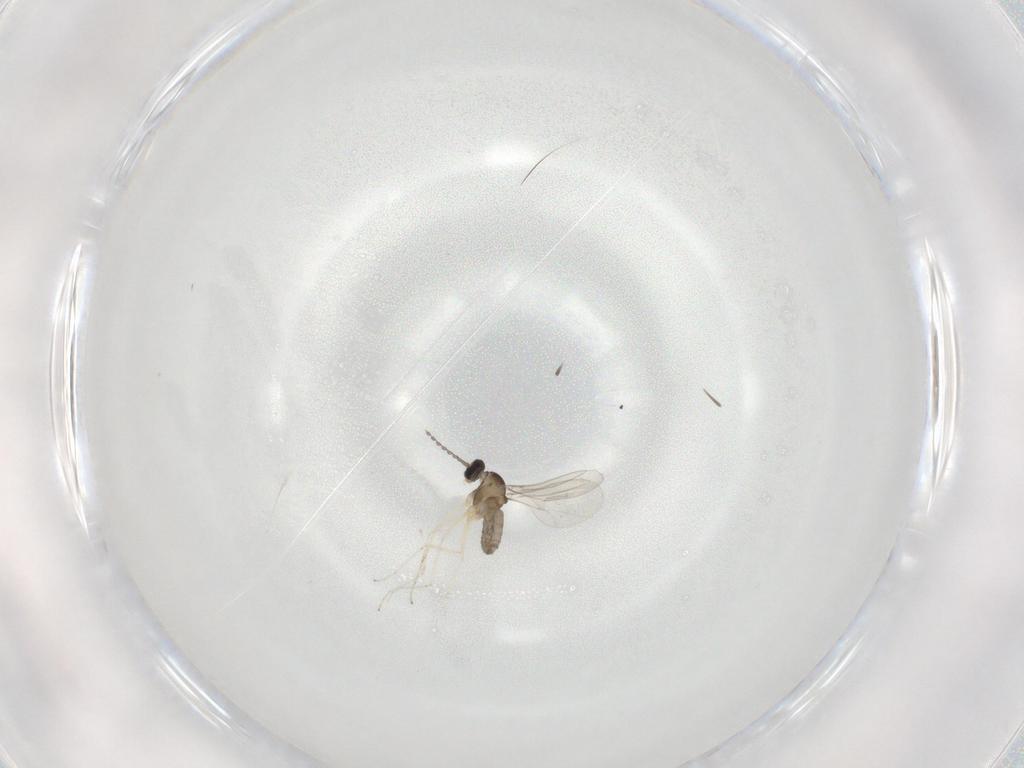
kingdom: Animalia
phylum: Arthropoda
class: Insecta
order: Diptera
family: Cecidomyiidae
